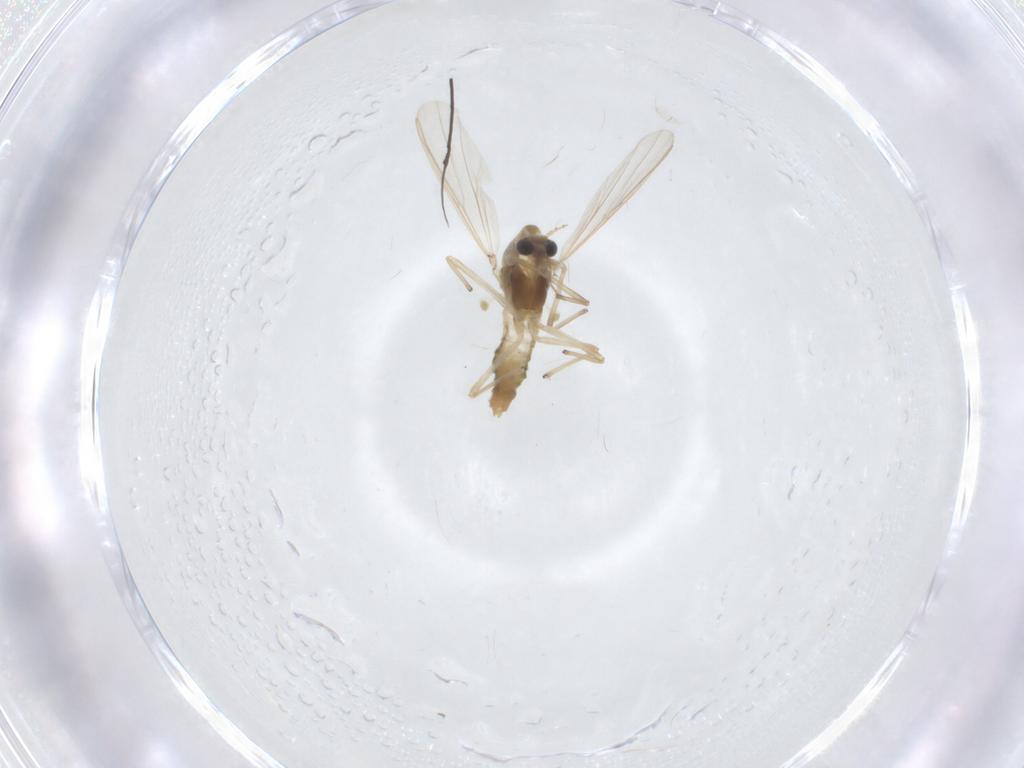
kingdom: Animalia
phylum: Arthropoda
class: Insecta
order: Diptera
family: Chironomidae
